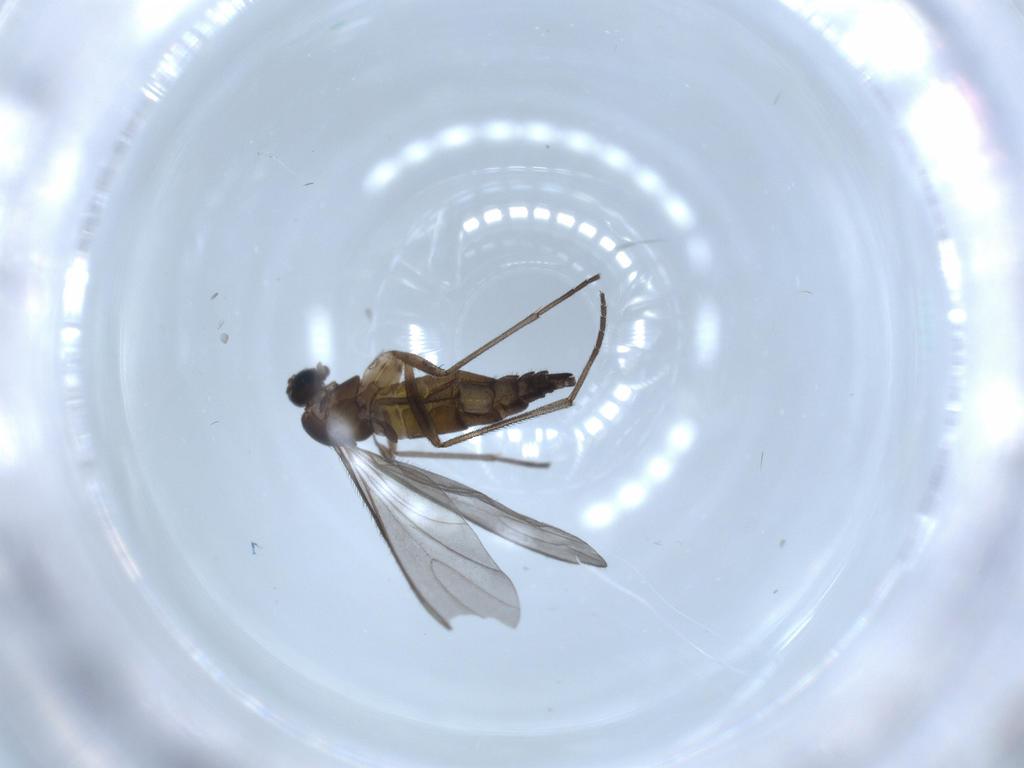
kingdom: Animalia
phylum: Arthropoda
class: Insecta
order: Diptera
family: Sciaridae
